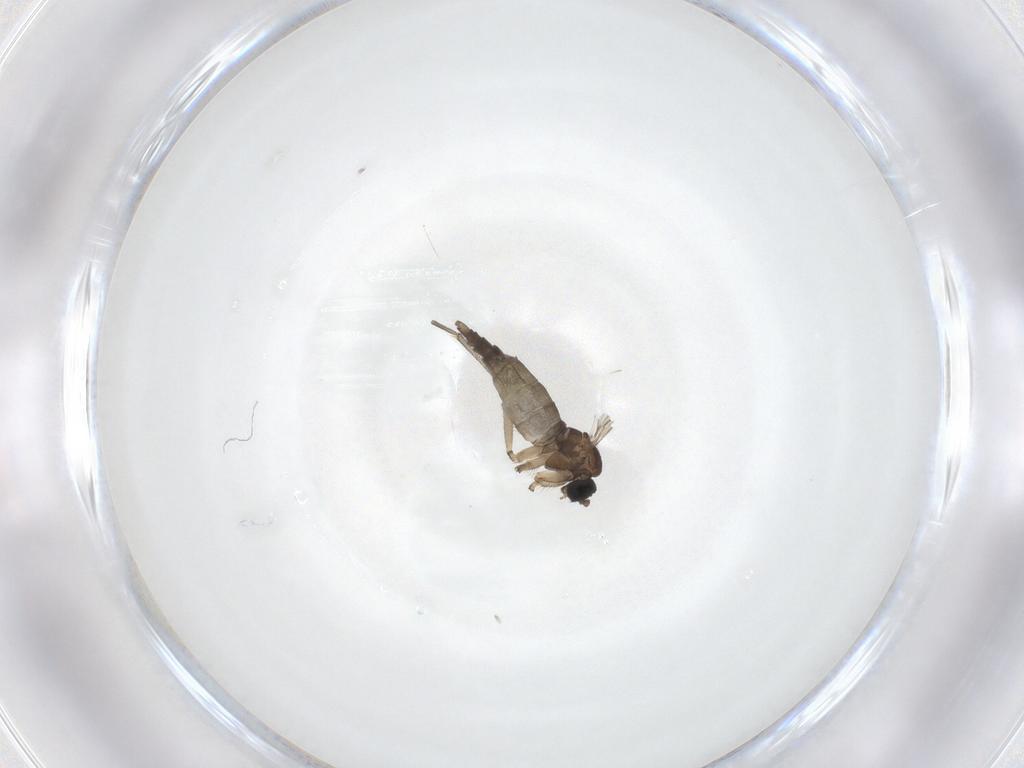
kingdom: Animalia
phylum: Arthropoda
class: Insecta
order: Diptera
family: Sciaridae
